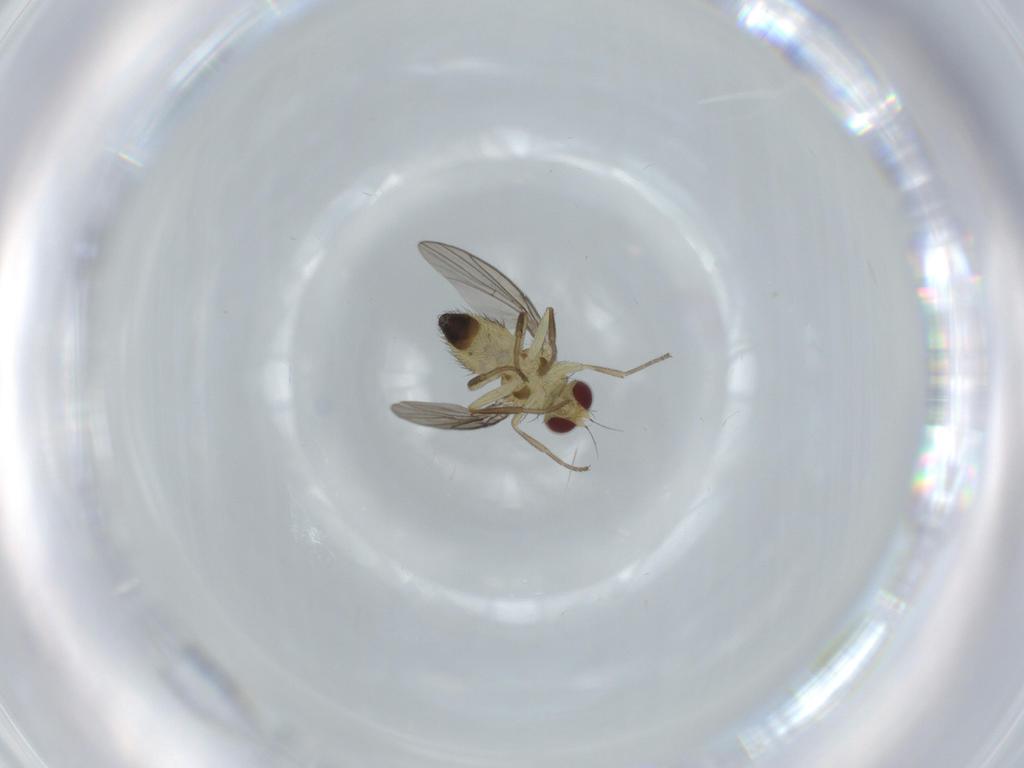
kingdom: Animalia
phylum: Arthropoda
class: Insecta
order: Diptera
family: Agromyzidae
